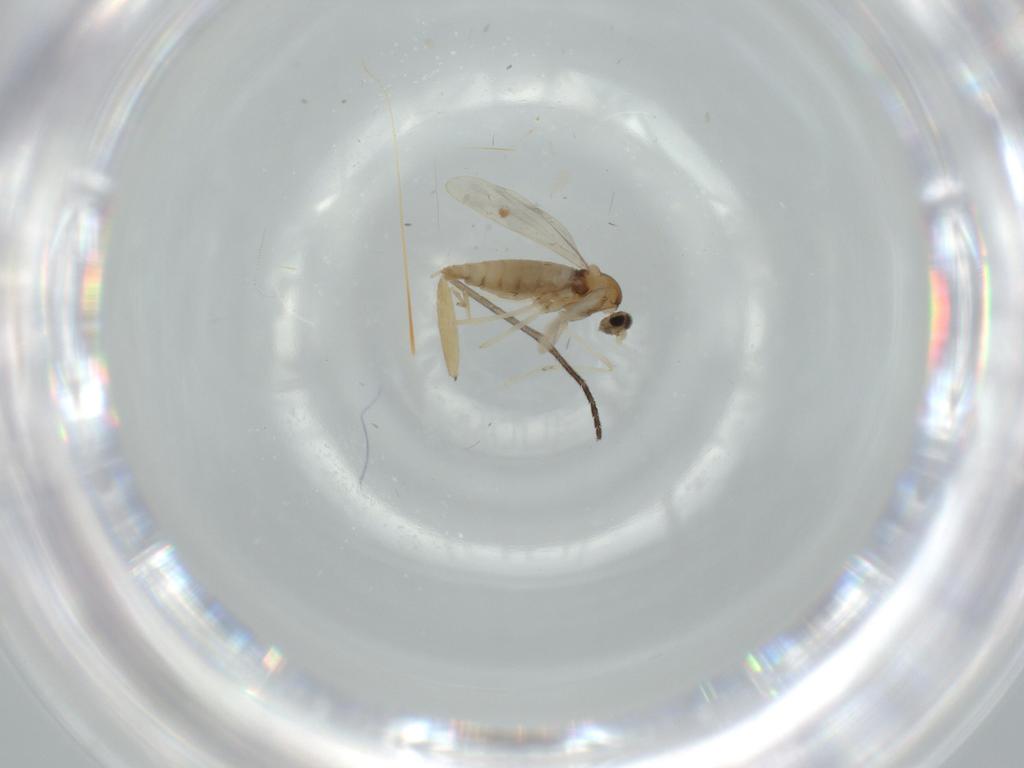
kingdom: Animalia
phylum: Arthropoda
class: Insecta
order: Diptera
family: Cecidomyiidae
